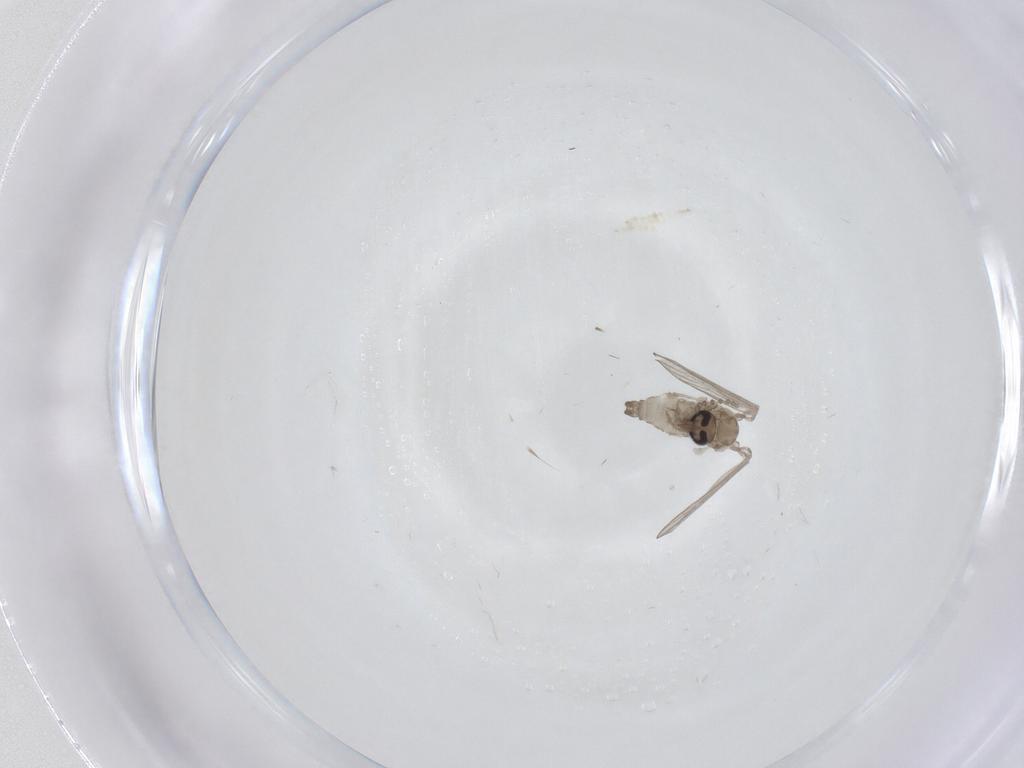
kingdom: Animalia
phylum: Arthropoda
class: Insecta
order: Diptera
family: Psychodidae
